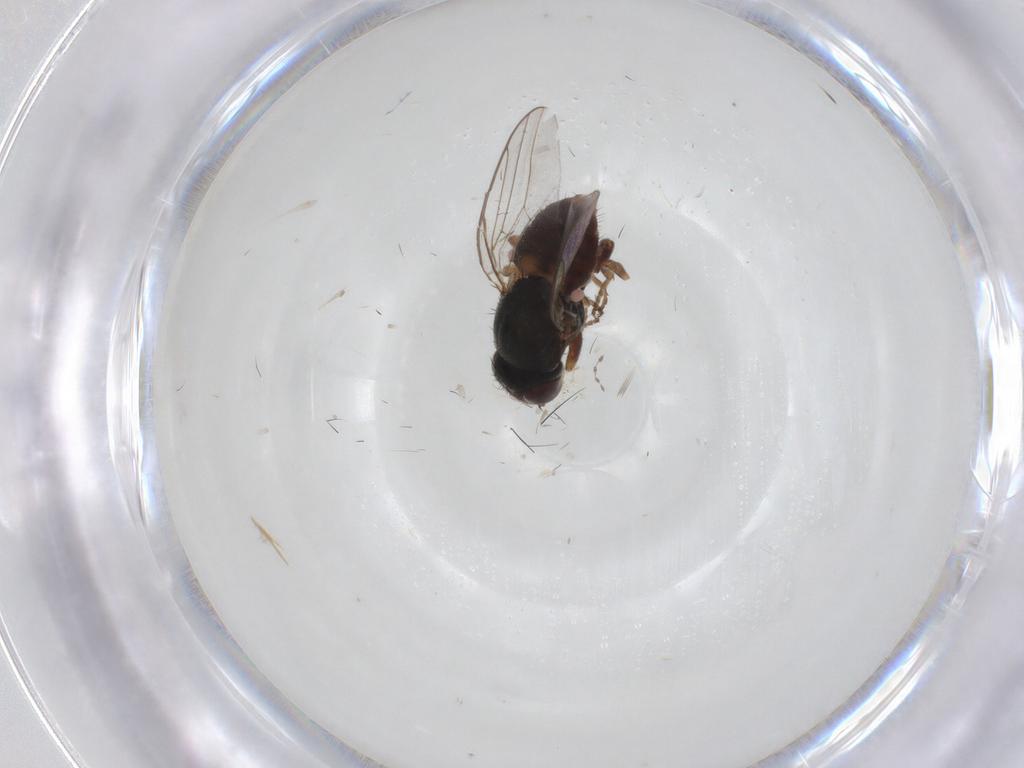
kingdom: Animalia
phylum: Arthropoda
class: Insecta
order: Diptera
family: Chloropidae
